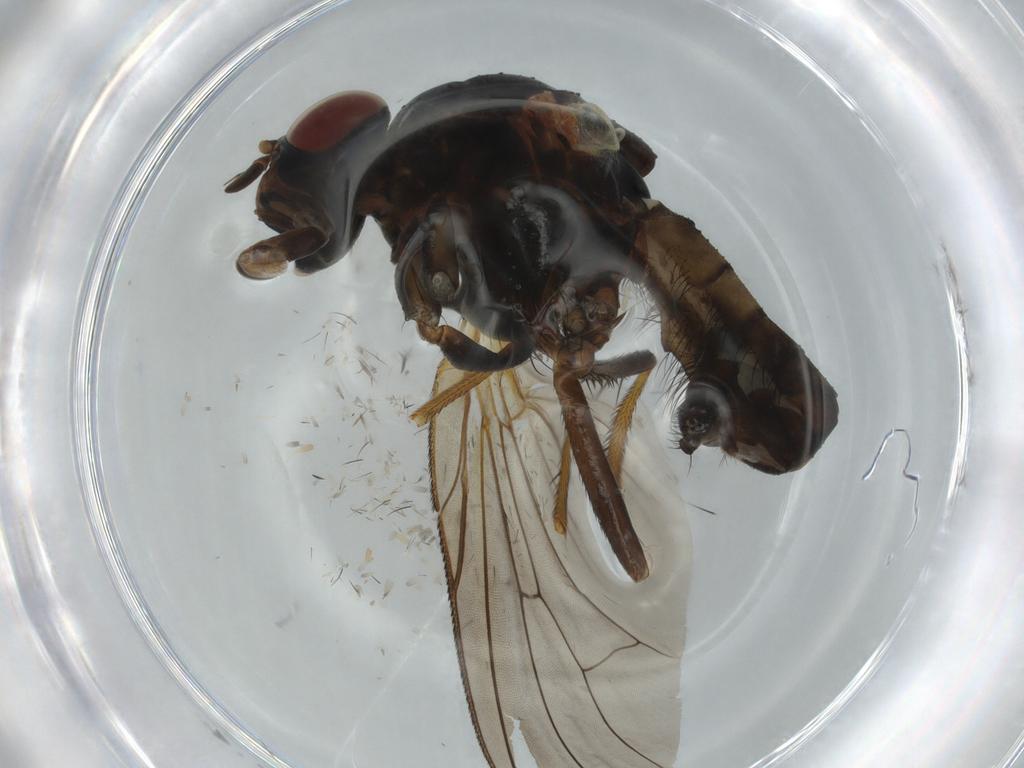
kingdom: Animalia
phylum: Arthropoda
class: Insecta
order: Diptera
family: Anthomyiidae
